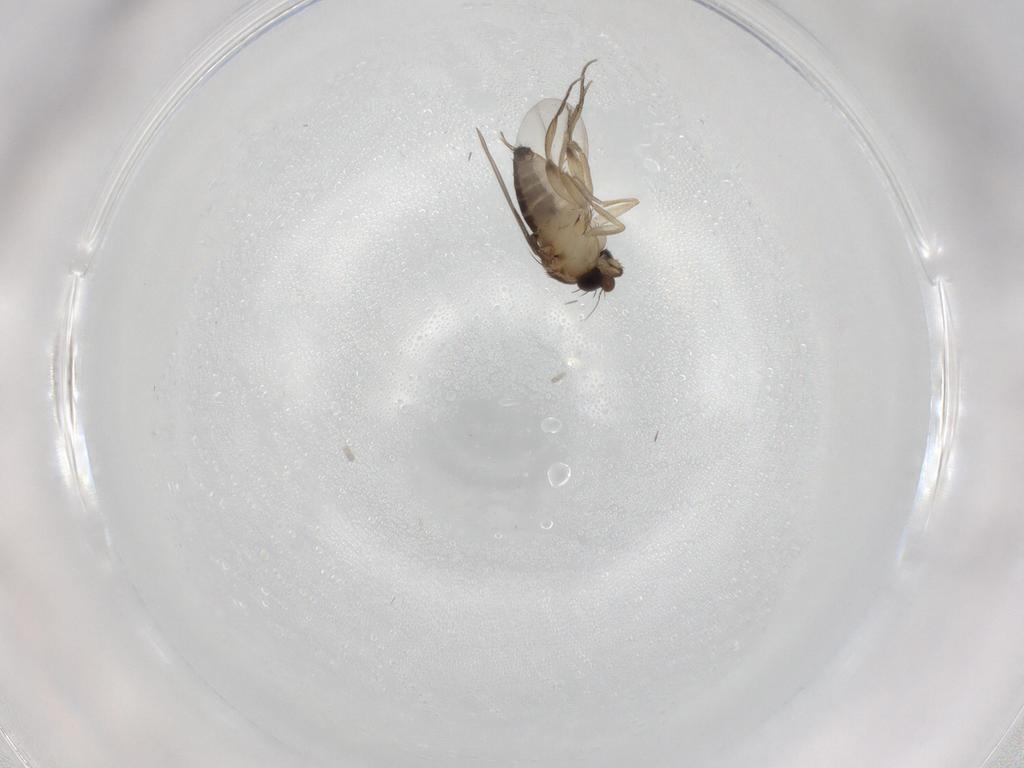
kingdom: Animalia
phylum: Arthropoda
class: Insecta
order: Diptera
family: Phoridae
